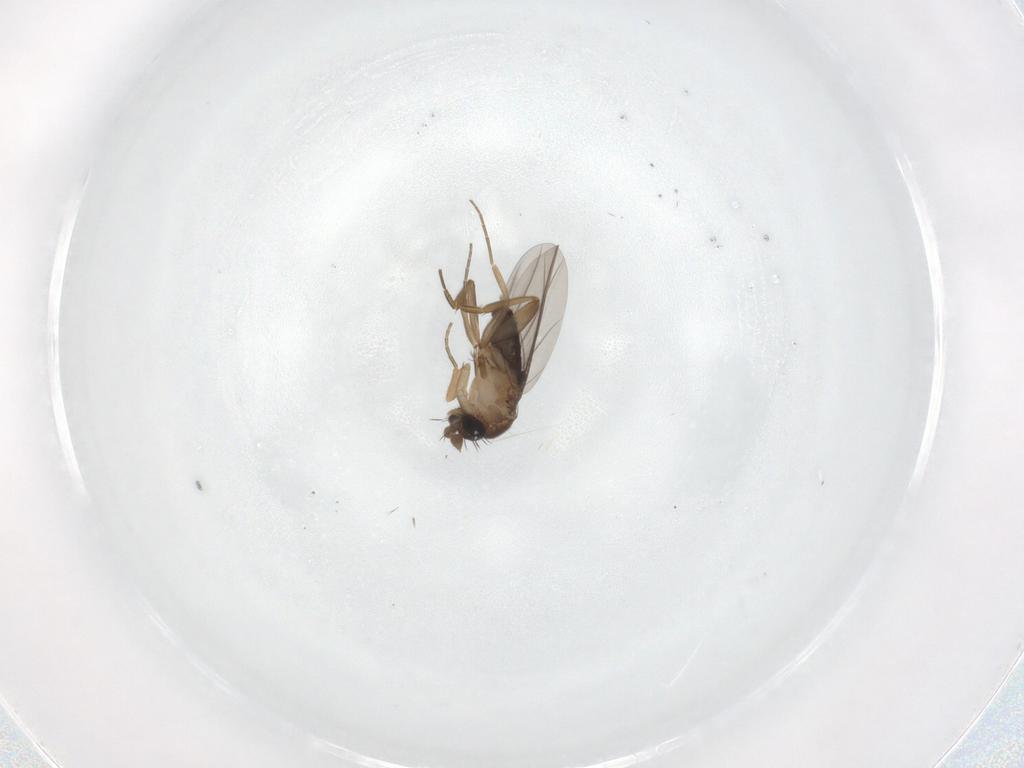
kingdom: Animalia
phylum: Arthropoda
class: Insecta
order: Diptera
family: Phoridae
